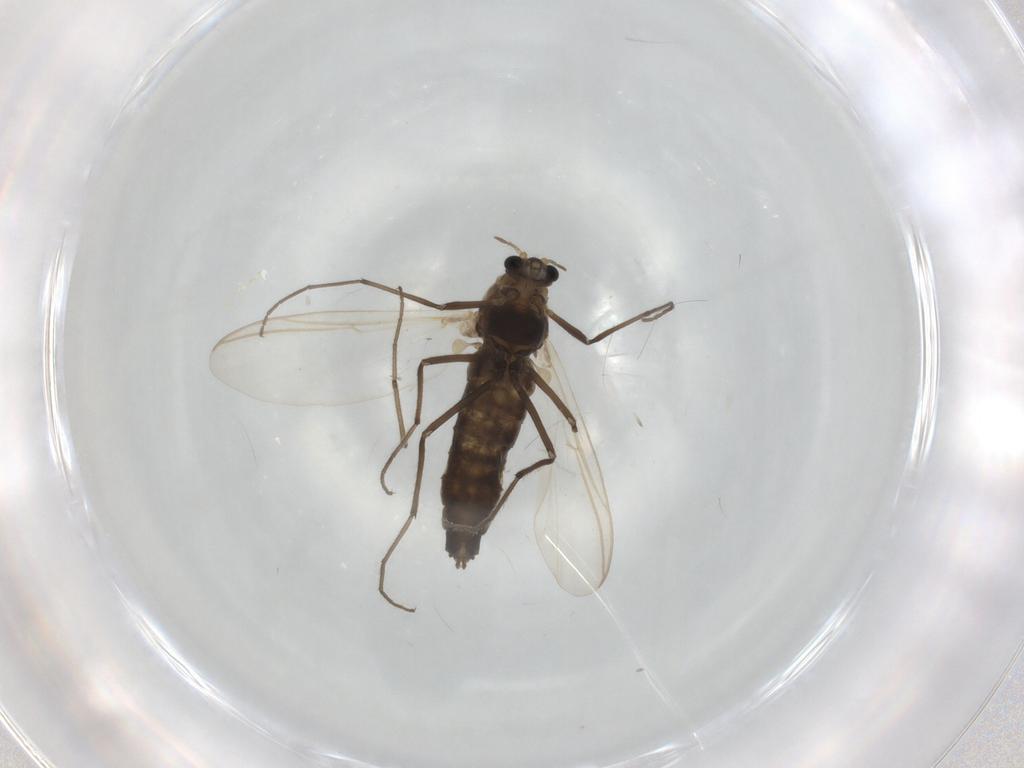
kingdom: Animalia
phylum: Arthropoda
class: Insecta
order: Diptera
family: Chironomidae
